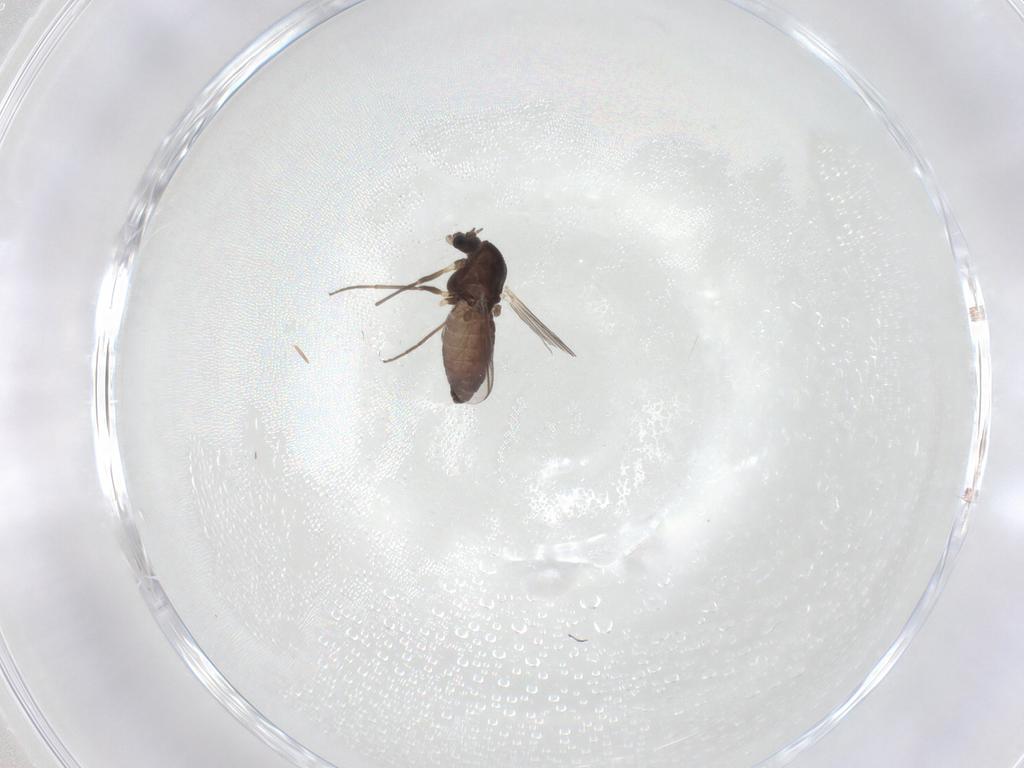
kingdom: Animalia
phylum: Arthropoda
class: Insecta
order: Diptera
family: Chironomidae
